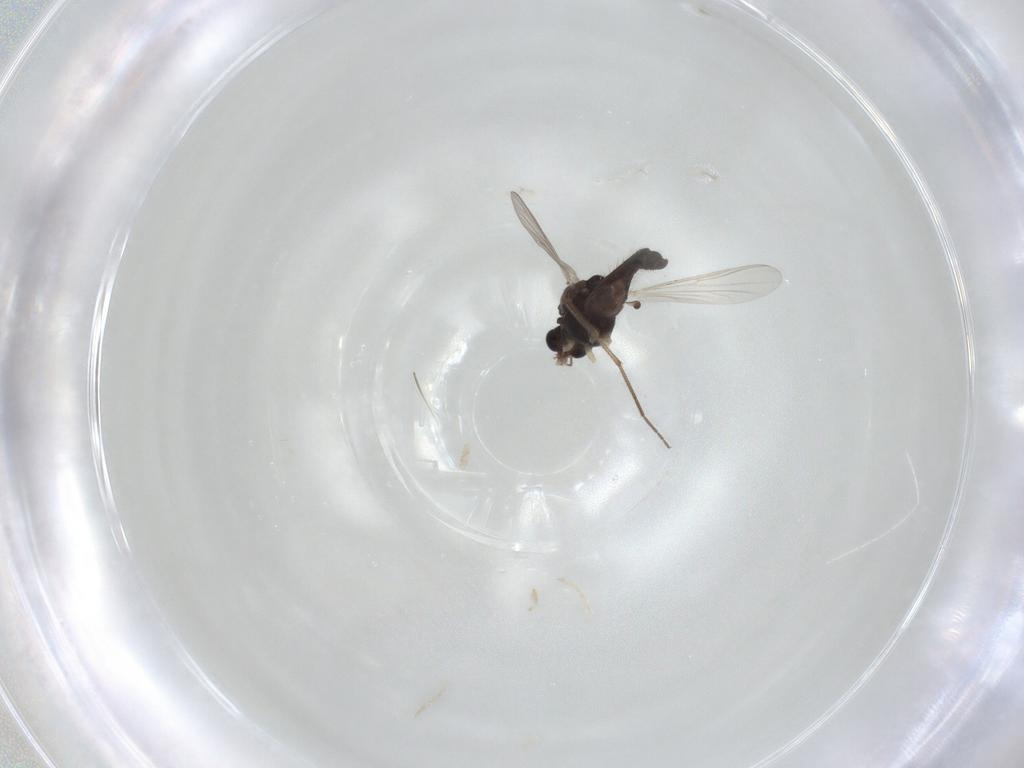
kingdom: Animalia
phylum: Arthropoda
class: Insecta
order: Diptera
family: Chironomidae
